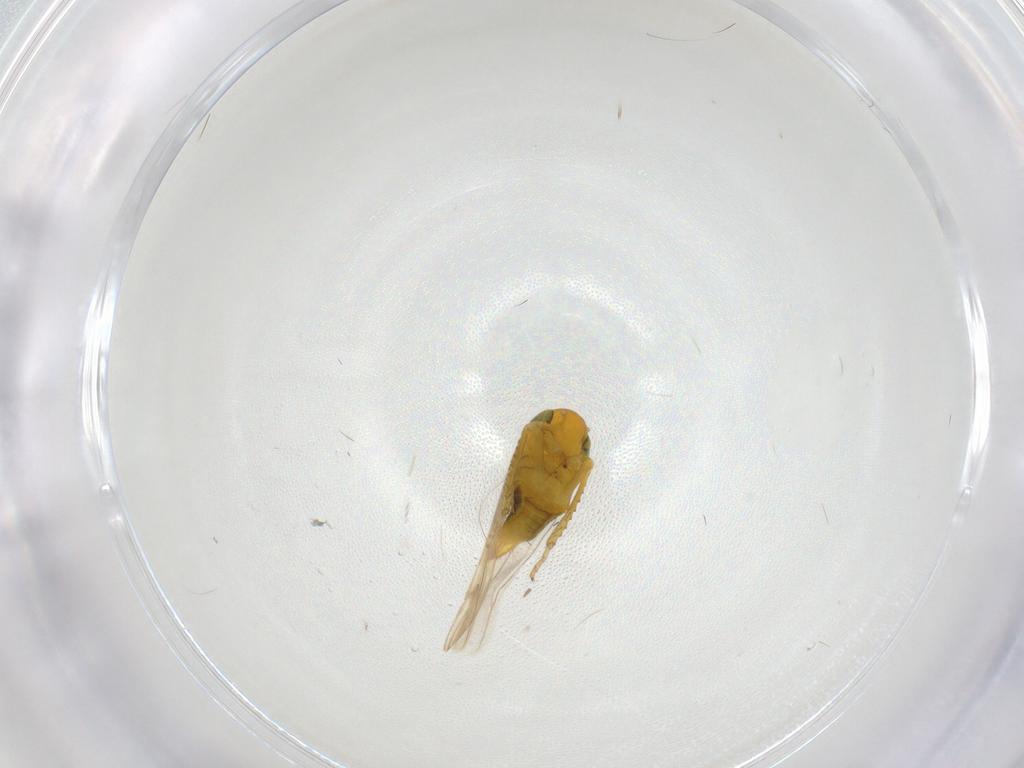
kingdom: Animalia
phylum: Arthropoda
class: Insecta
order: Hemiptera
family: Alydidae
